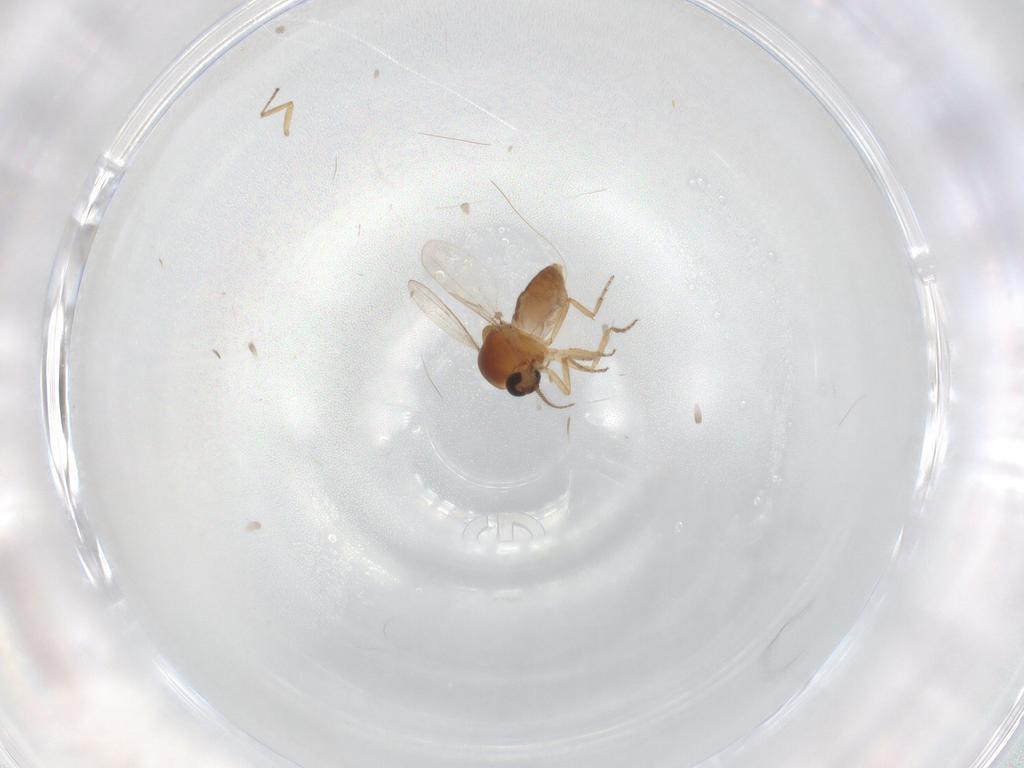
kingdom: Animalia
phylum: Arthropoda
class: Insecta
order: Diptera
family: Ceratopogonidae
